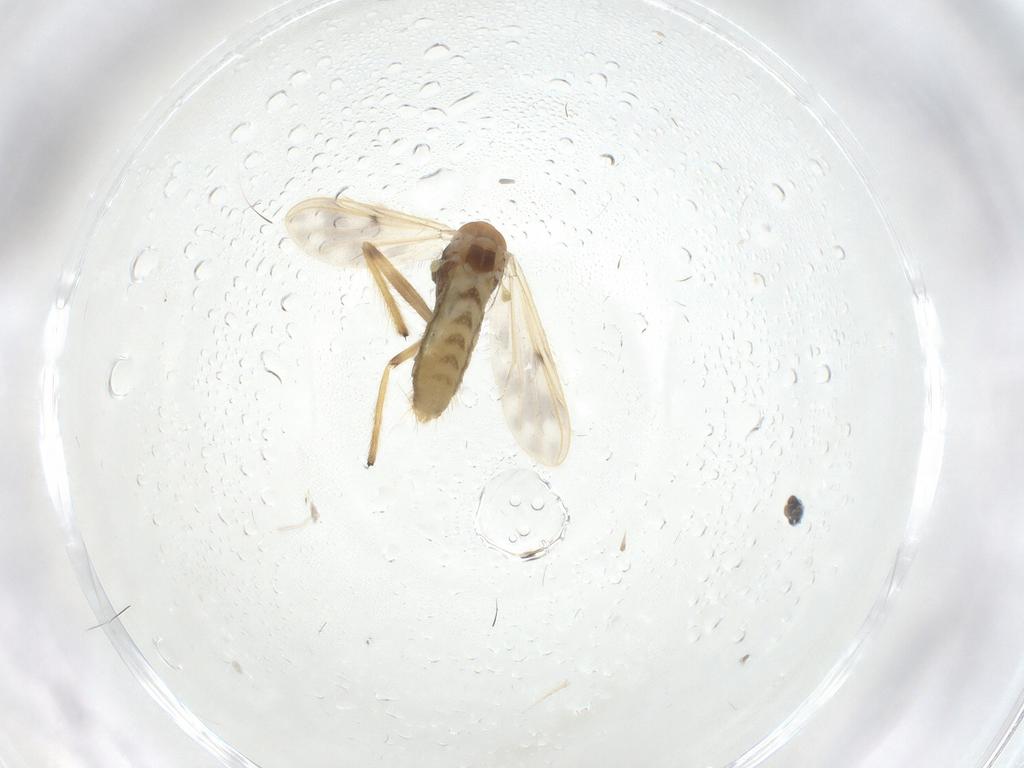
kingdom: Animalia
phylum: Arthropoda
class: Insecta
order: Diptera
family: Chironomidae
